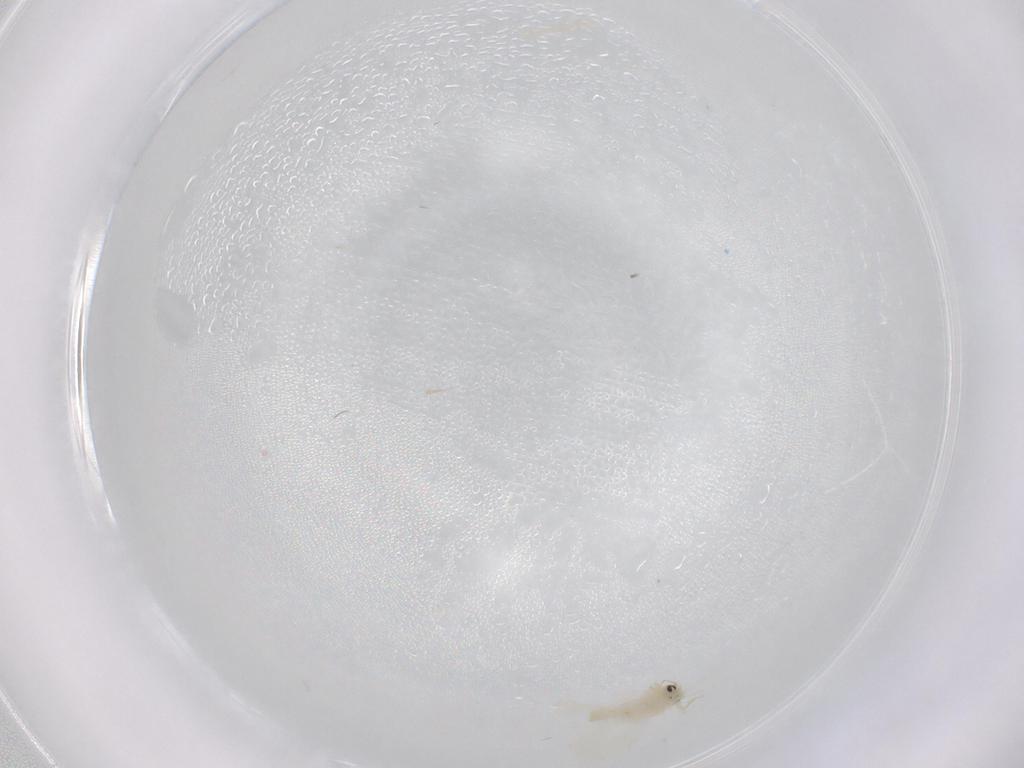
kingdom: Animalia
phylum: Arthropoda
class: Insecta
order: Hemiptera
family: Aleyrodidae
